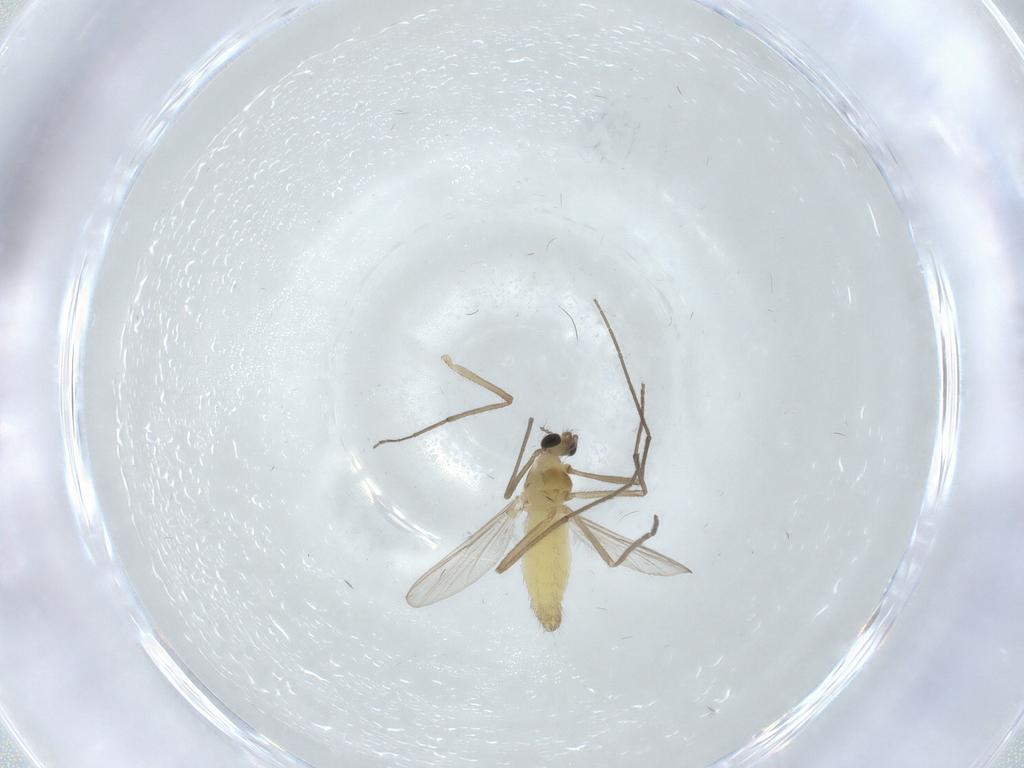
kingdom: Animalia
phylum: Arthropoda
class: Insecta
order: Diptera
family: Chironomidae
